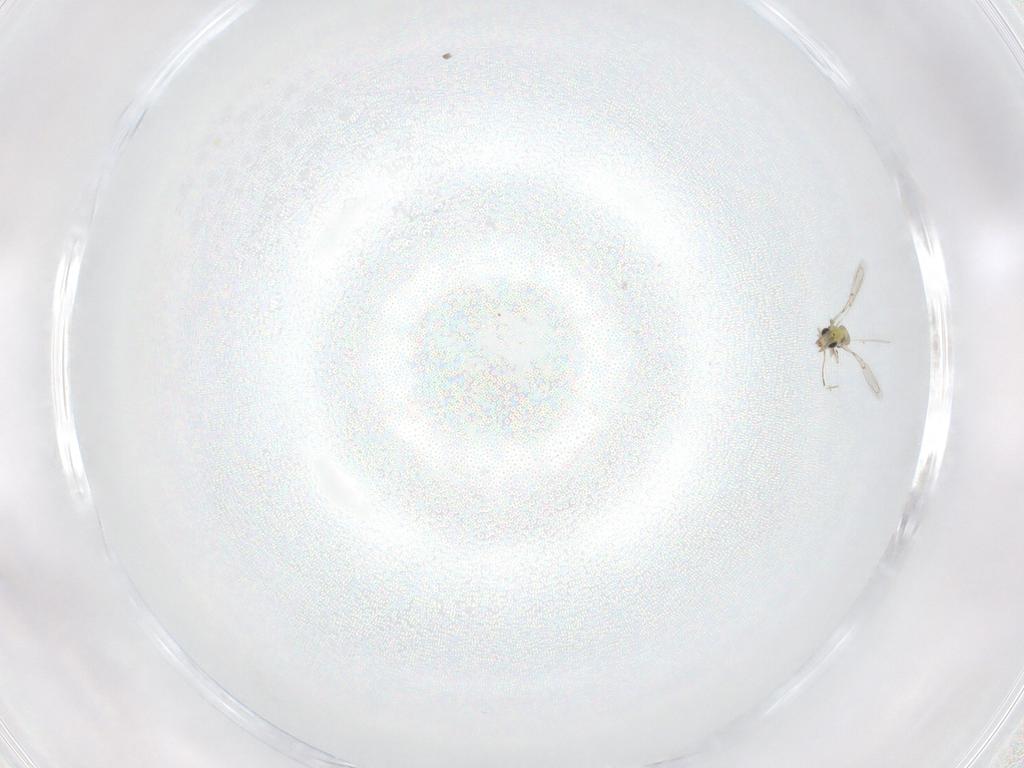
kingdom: Animalia
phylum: Arthropoda
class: Insecta
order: Hymenoptera
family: Trichogrammatidae
